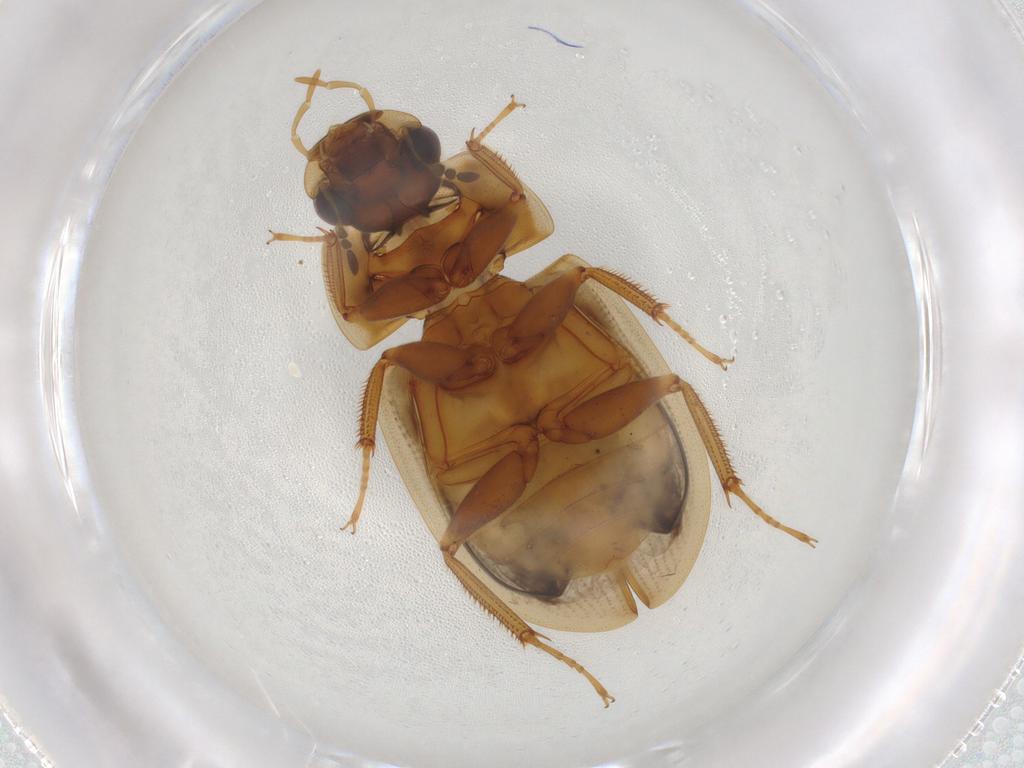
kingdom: Animalia
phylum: Arthropoda
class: Insecta
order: Coleoptera
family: Hydrophilidae
